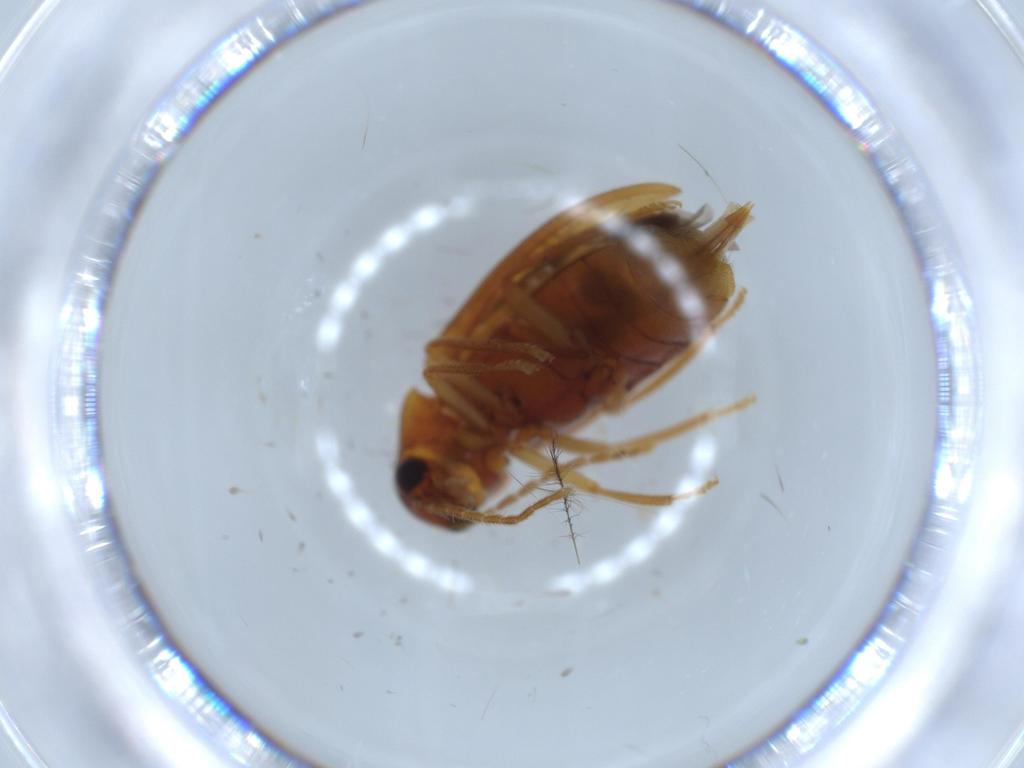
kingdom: Animalia
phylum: Arthropoda
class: Insecta
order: Coleoptera
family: Ptilodactylidae
